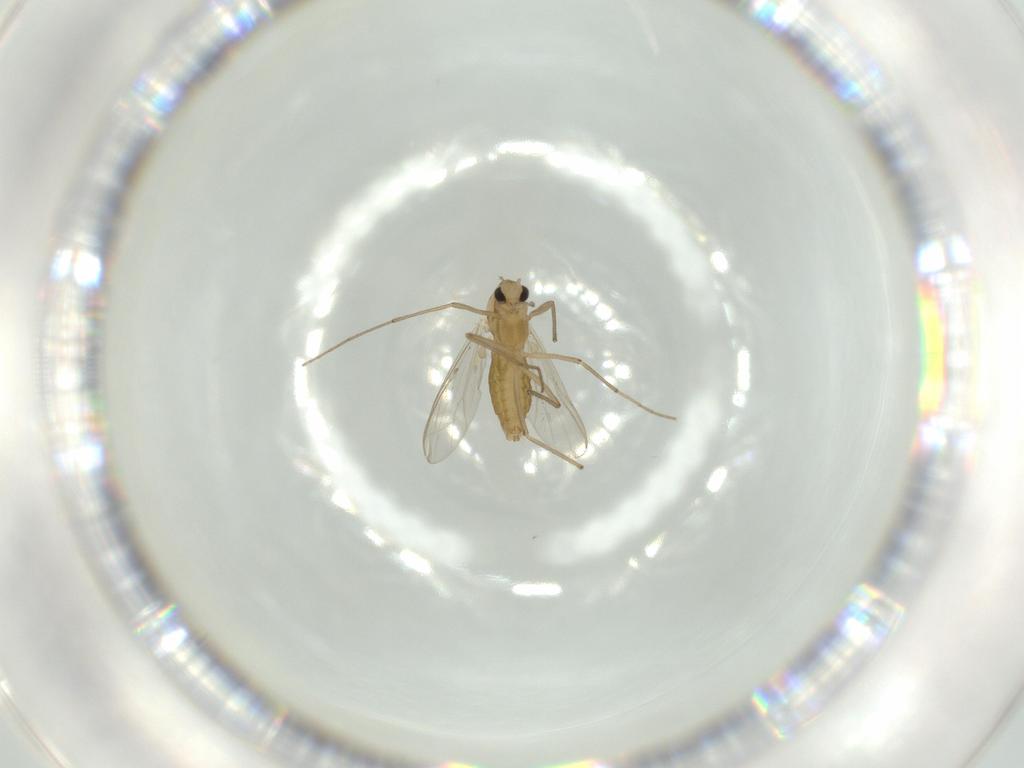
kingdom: Animalia
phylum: Arthropoda
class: Insecta
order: Diptera
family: Chironomidae
